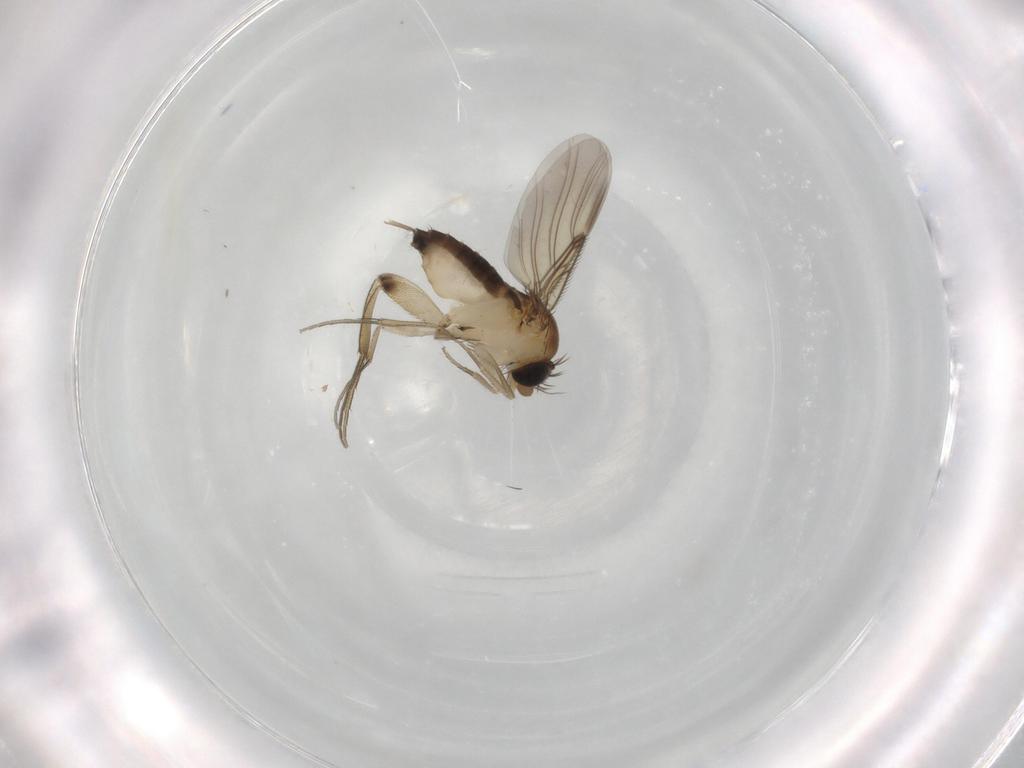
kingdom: Animalia
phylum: Arthropoda
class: Insecta
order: Diptera
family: Phoridae
